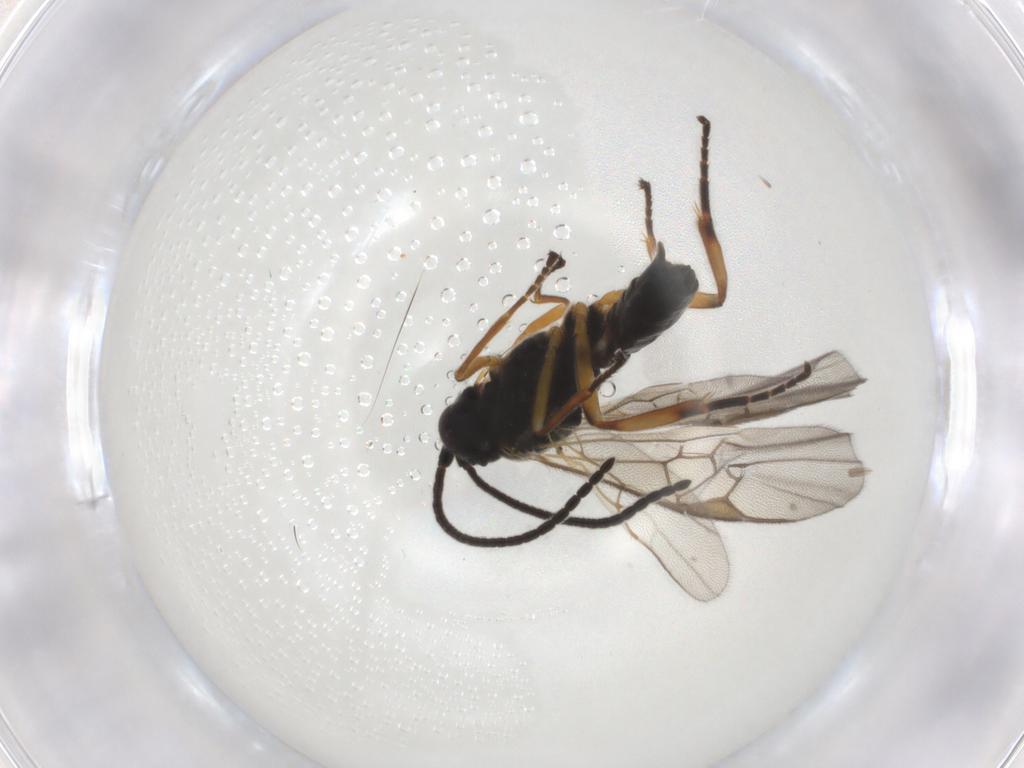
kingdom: Animalia
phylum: Arthropoda
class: Insecta
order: Hymenoptera
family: Braconidae
